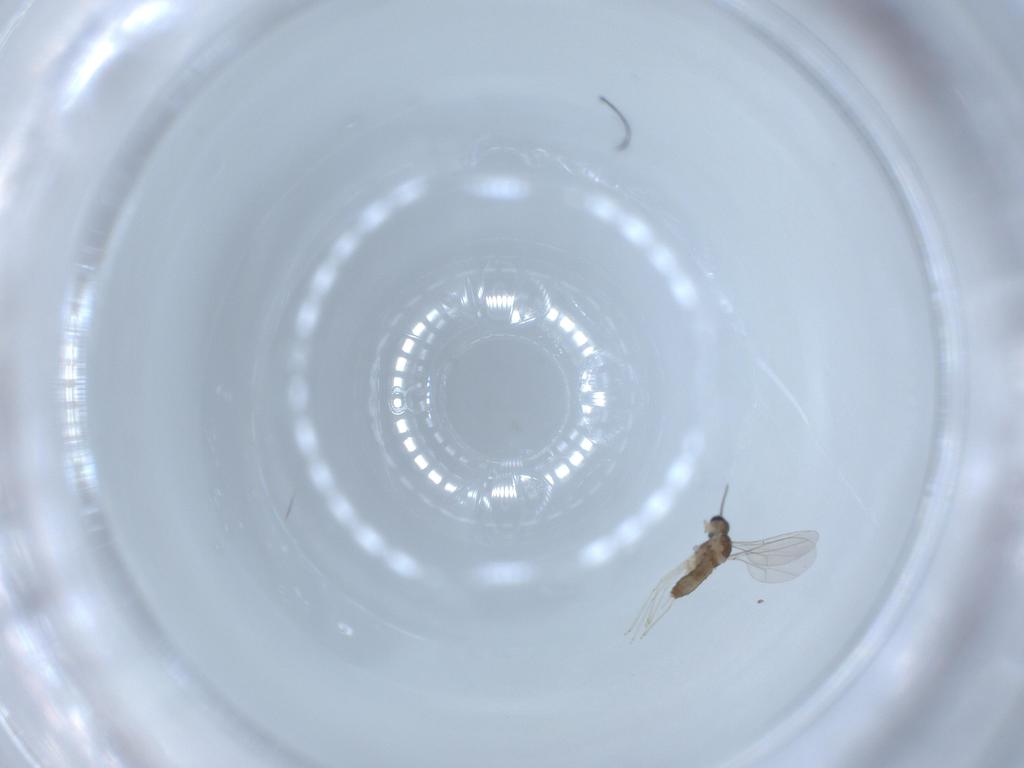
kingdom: Animalia
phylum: Arthropoda
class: Insecta
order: Diptera
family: Cecidomyiidae
